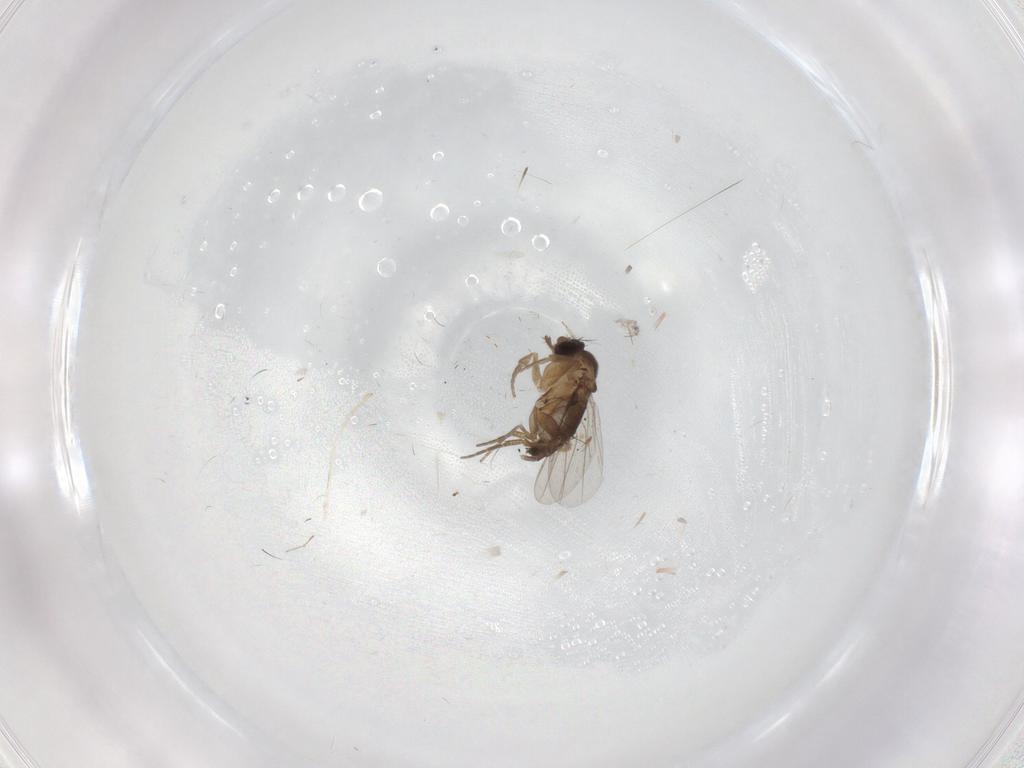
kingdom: Animalia
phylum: Arthropoda
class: Insecta
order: Diptera
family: Phoridae
